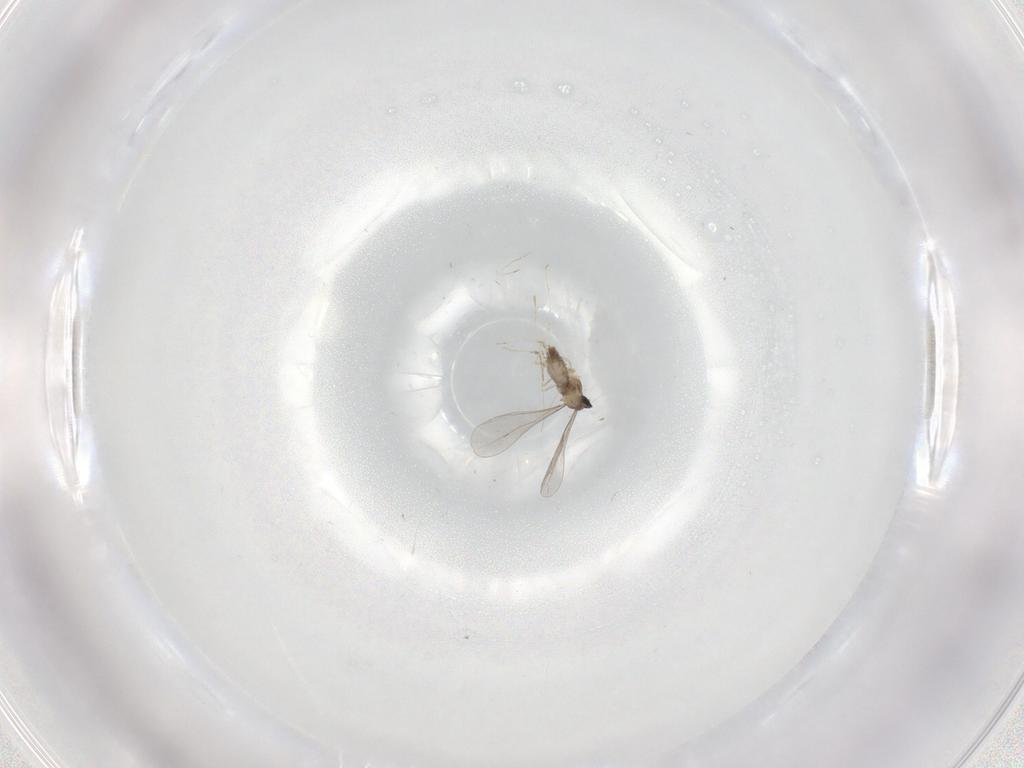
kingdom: Animalia
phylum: Arthropoda
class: Insecta
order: Diptera
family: Cecidomyiidae
